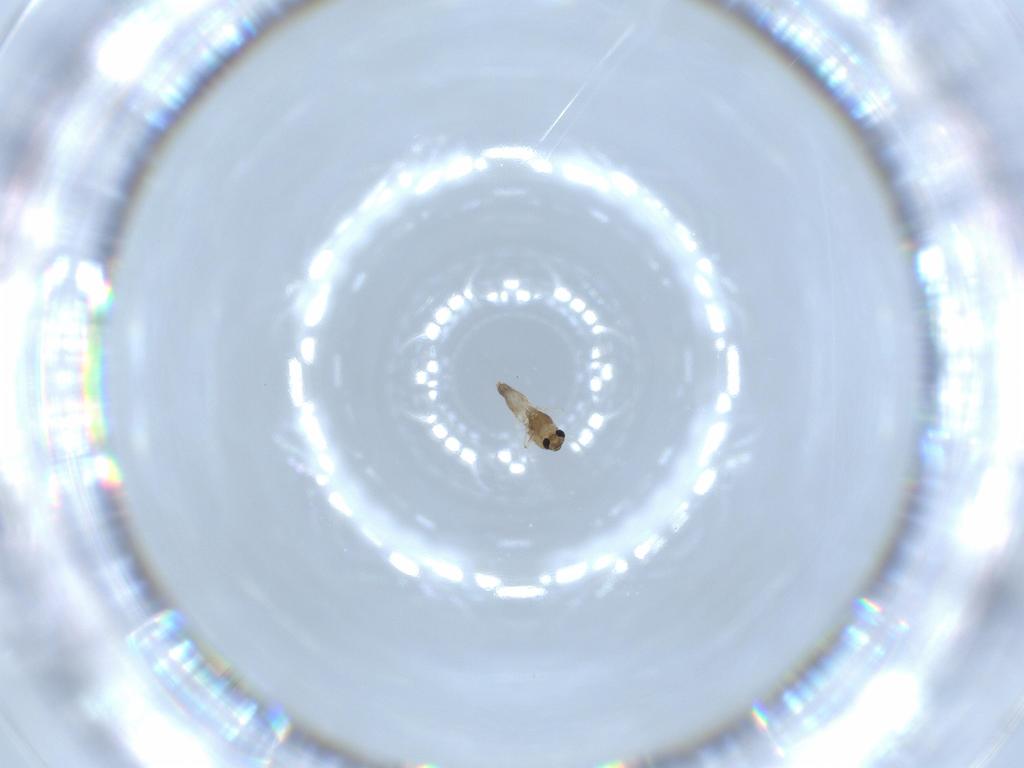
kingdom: Animalia
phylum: Arthropoda
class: Insecta
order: Diptera
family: Chironomidae
